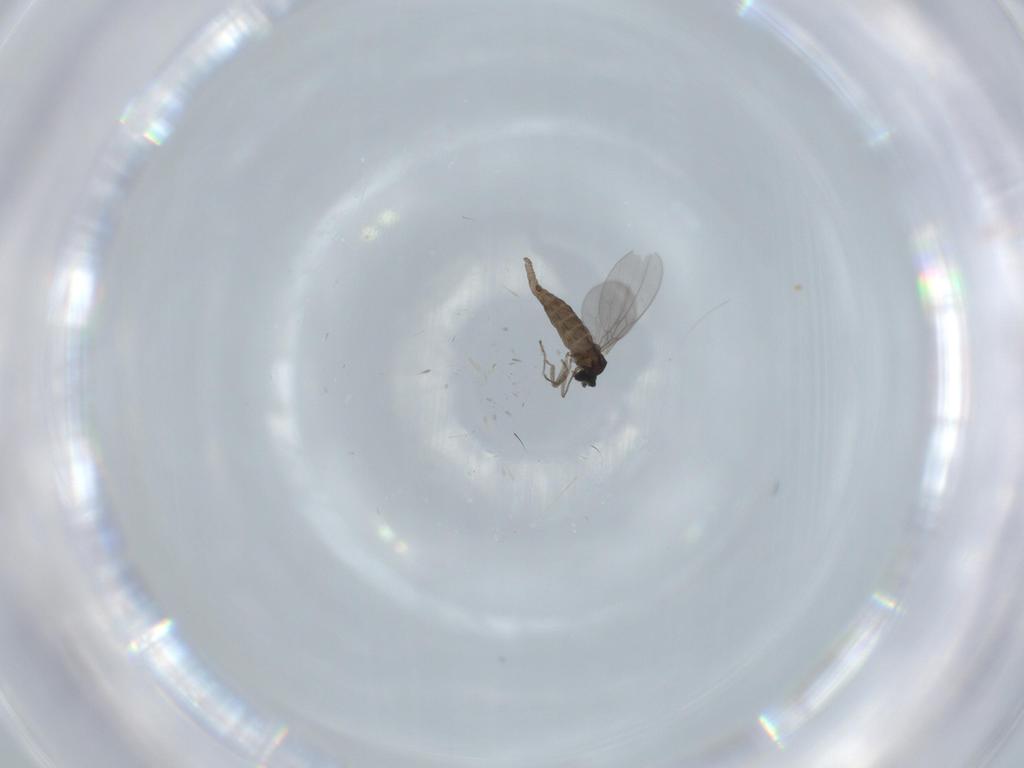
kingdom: Animalia
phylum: Arthropoda
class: Insecta
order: Diptera
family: Cecidomyiidae
